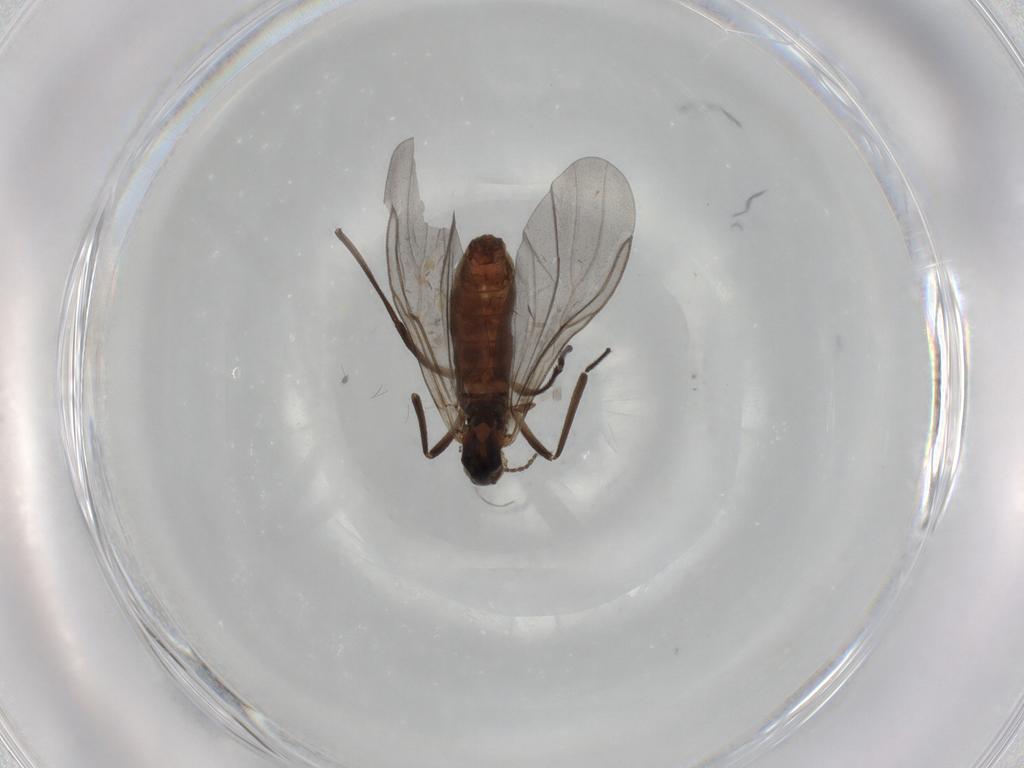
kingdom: Animalia
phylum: Arthropoda
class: Insecta
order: Diptera
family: Cecidomyiidae
